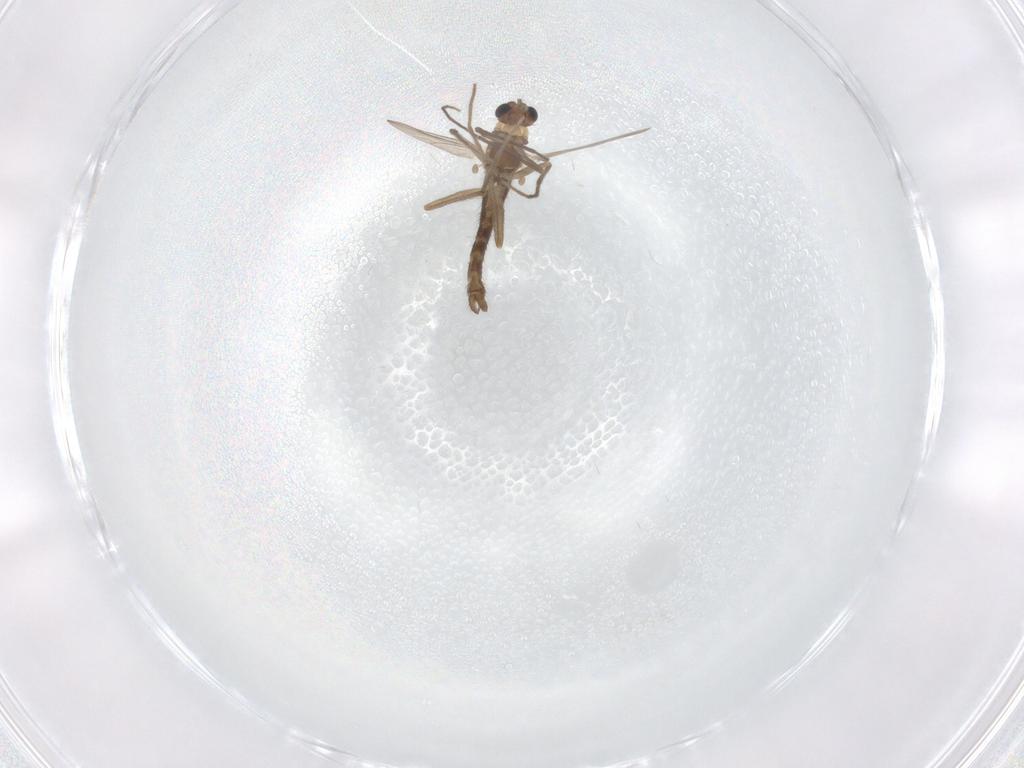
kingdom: Animalia
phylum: Arthropoda
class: Insecta
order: Diptera
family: Chironomidae
